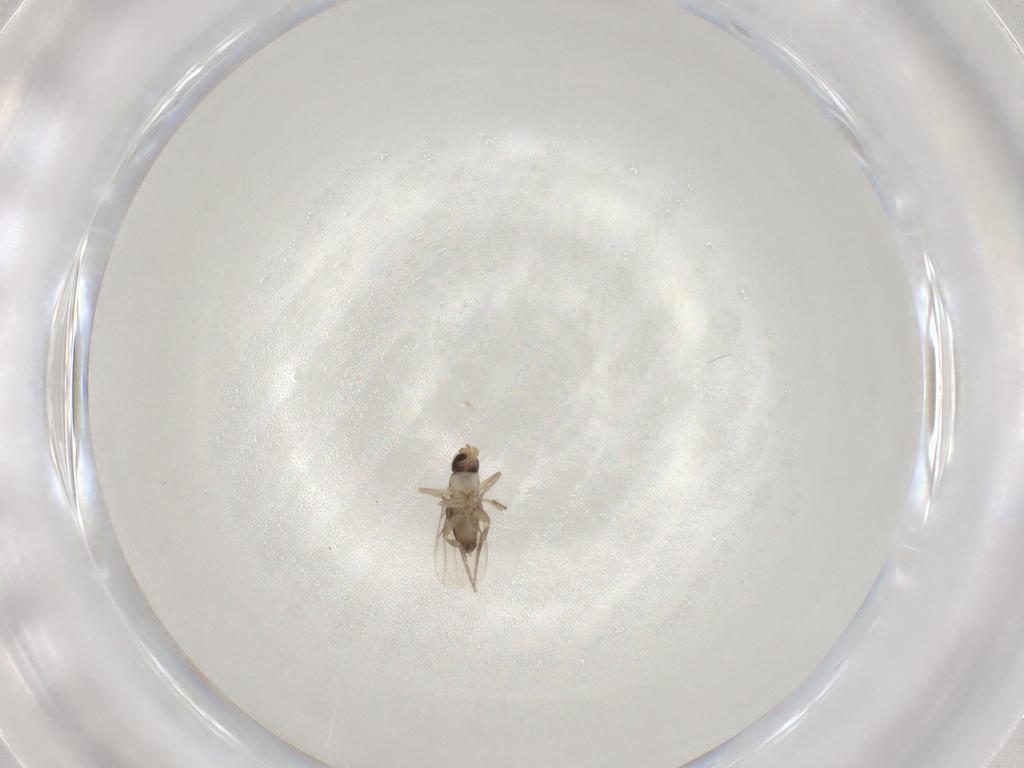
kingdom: Animalia
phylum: Arthropoda
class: Insecta
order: Diptera
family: Phoridae
